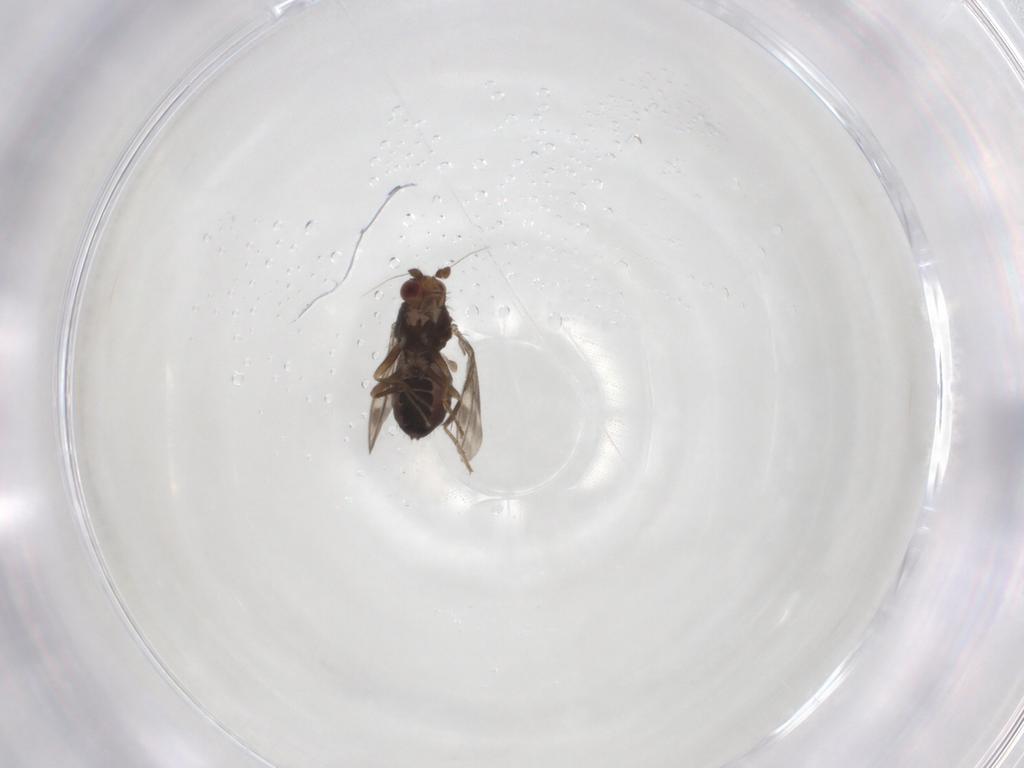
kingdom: Animalia
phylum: Arthropoda
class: Insecta
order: Diptera
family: Sphaeroceridae
